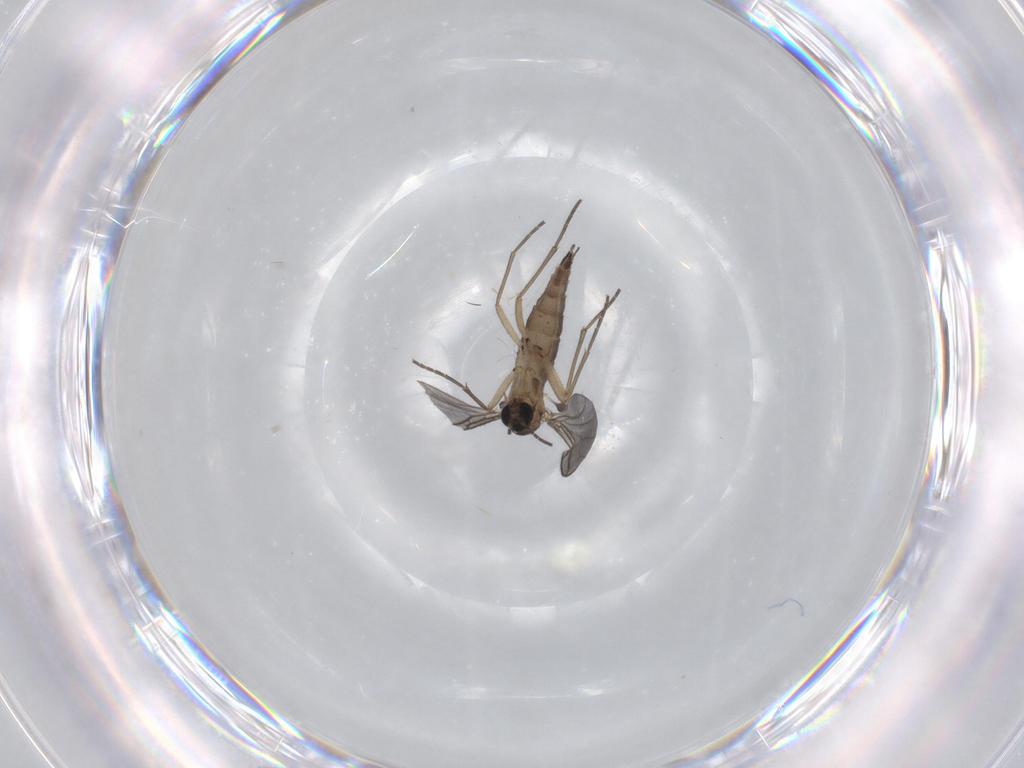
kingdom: Animalia
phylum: Arthropoda
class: Insecta
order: Diptera
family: Sciaridae
